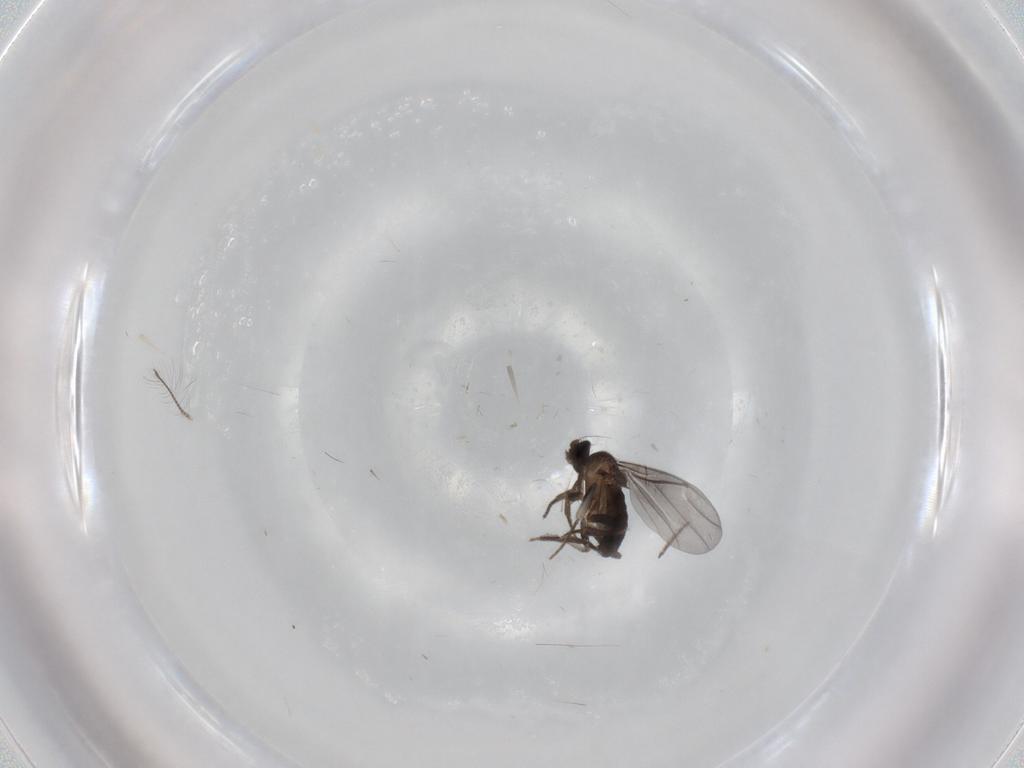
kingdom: Animalia
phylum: Arthropoda
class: Insecta
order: Diptera
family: Phoridae
